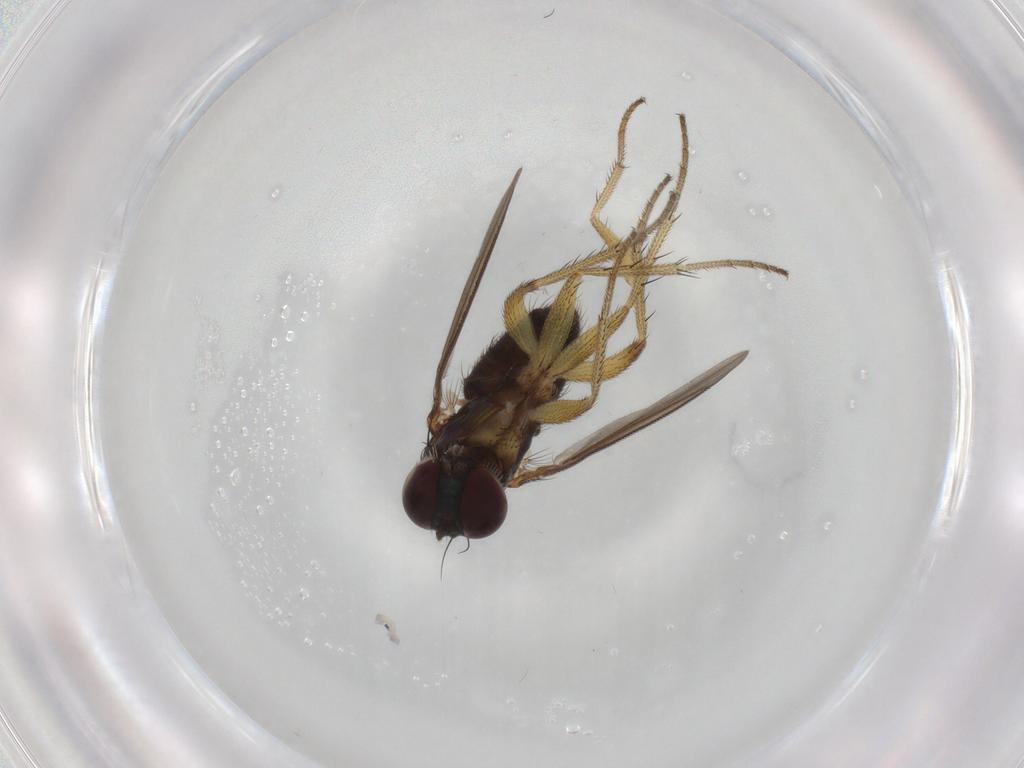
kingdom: Animalia
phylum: Arthropoda
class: Insecta
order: Diptera
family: Dolichopodidae
